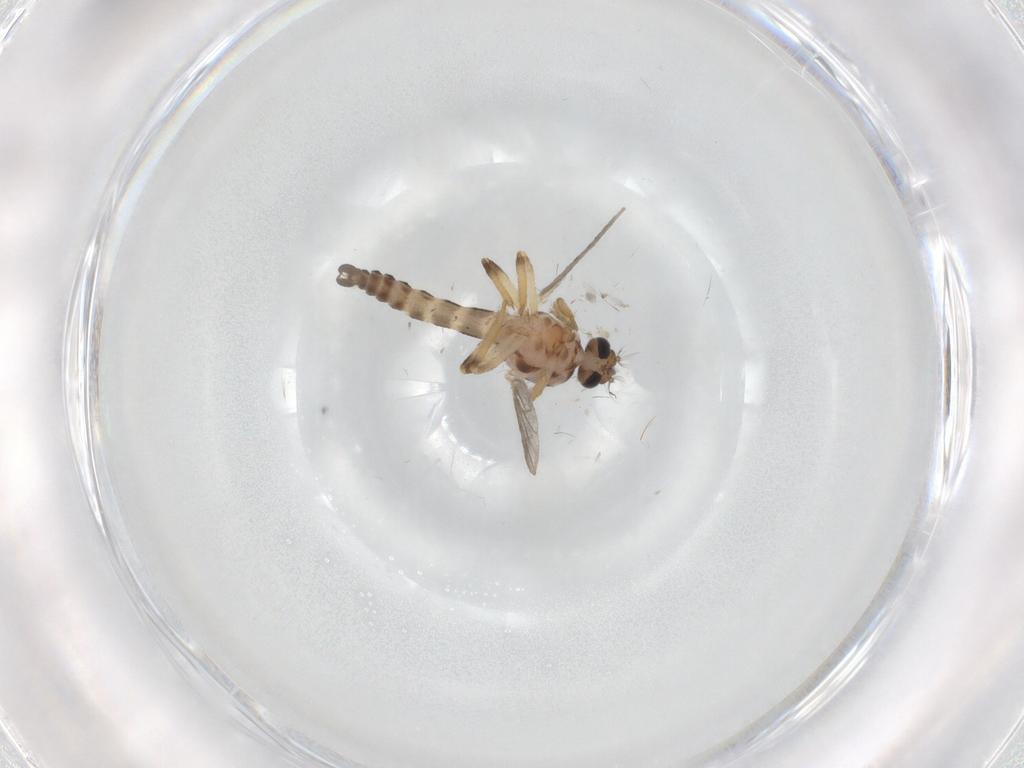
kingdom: Animalia
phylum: Arthropoda
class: Insecta
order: Diptera
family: Ceratopogonidae
